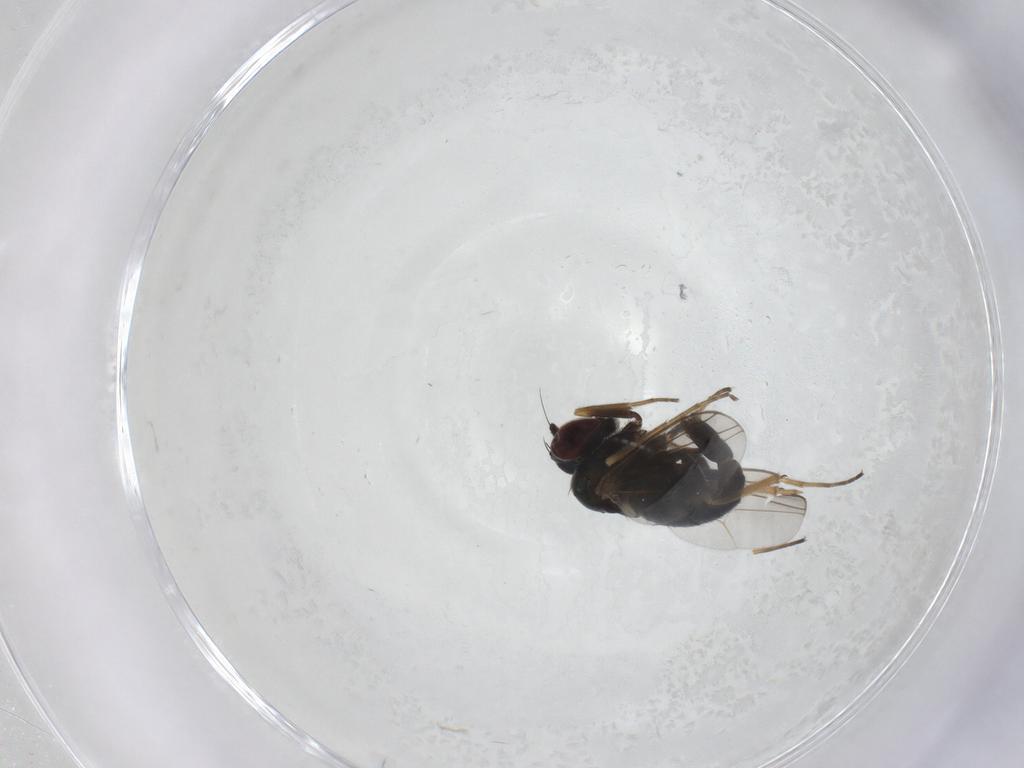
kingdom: Animalia
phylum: Arthropoda
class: Insecta
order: Diptera
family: Dolichopodidae
